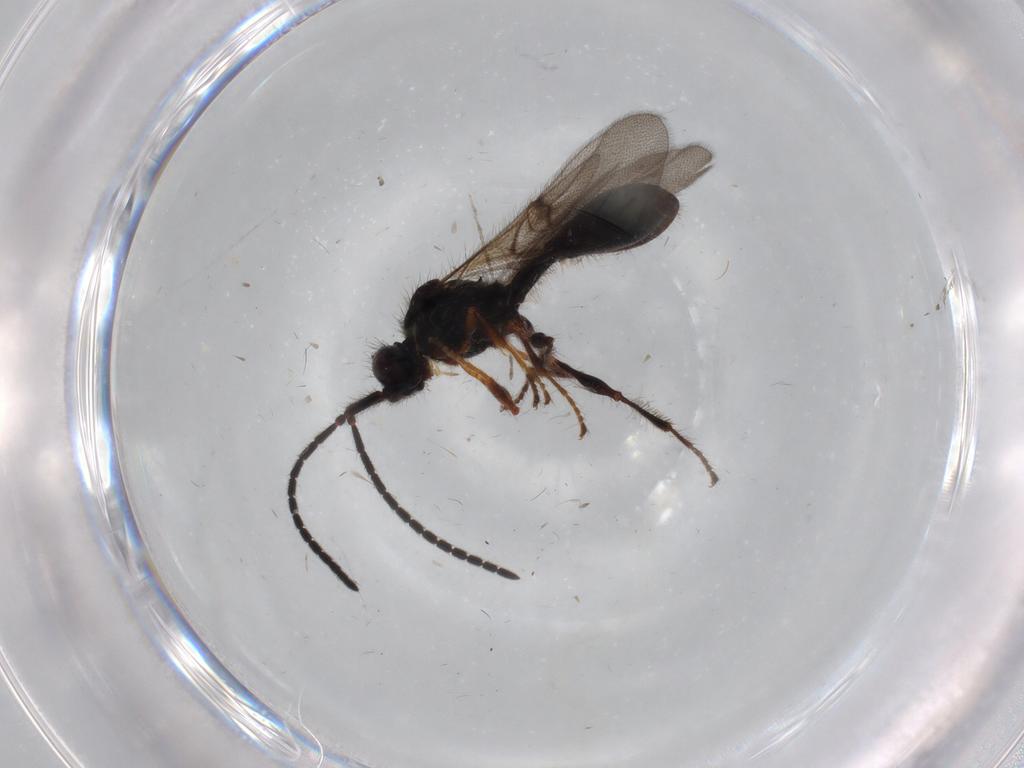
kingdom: Animalia
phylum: Arthropoda
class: Insecta
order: Hymenoptera
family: Diapriidae
